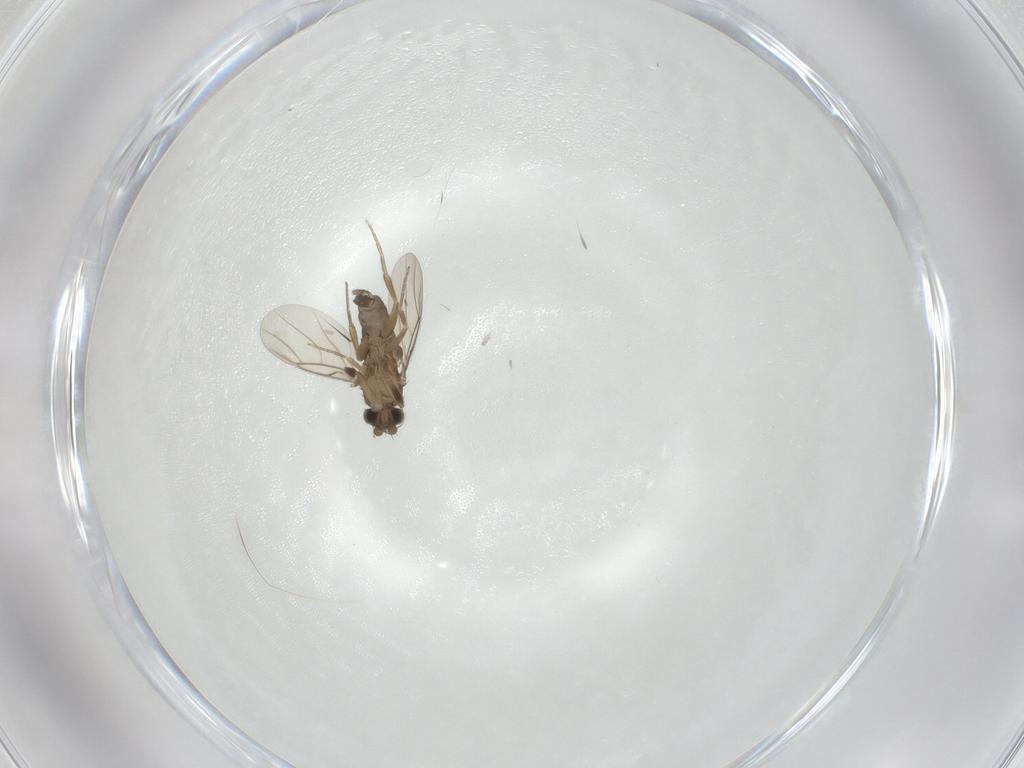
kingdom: Animalia
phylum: Arthropoda
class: Insecta
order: Diptera
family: Phoridae
